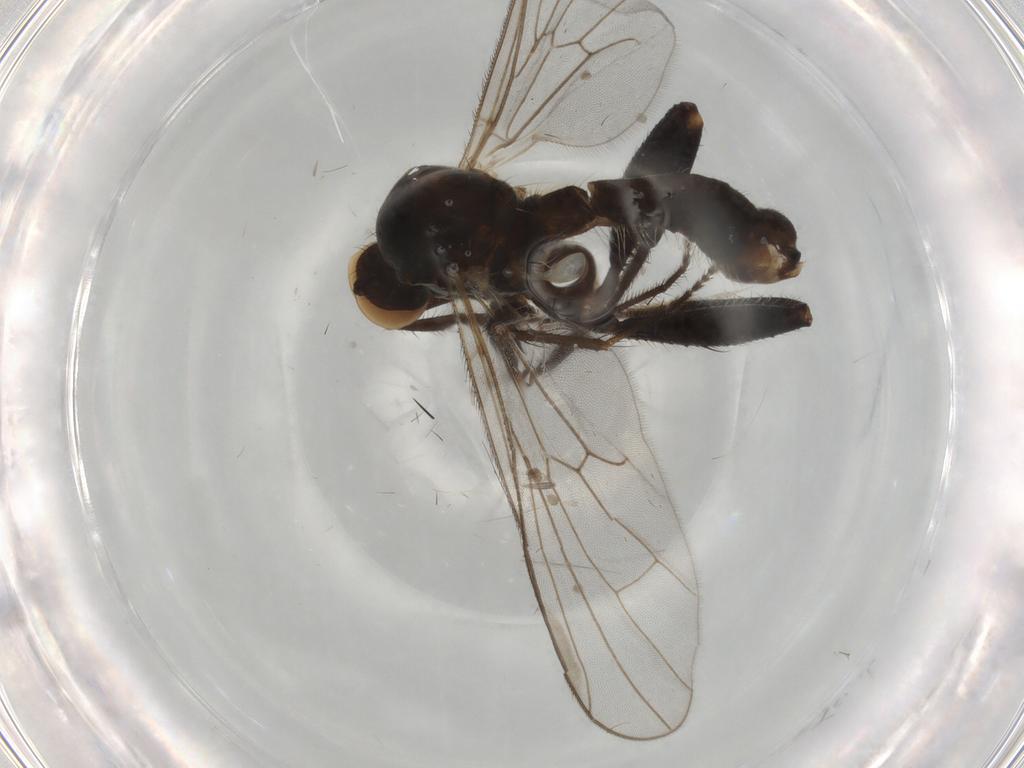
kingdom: Animalia
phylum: Arthropoda
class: Insecta
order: Diptera
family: Hybotidae
